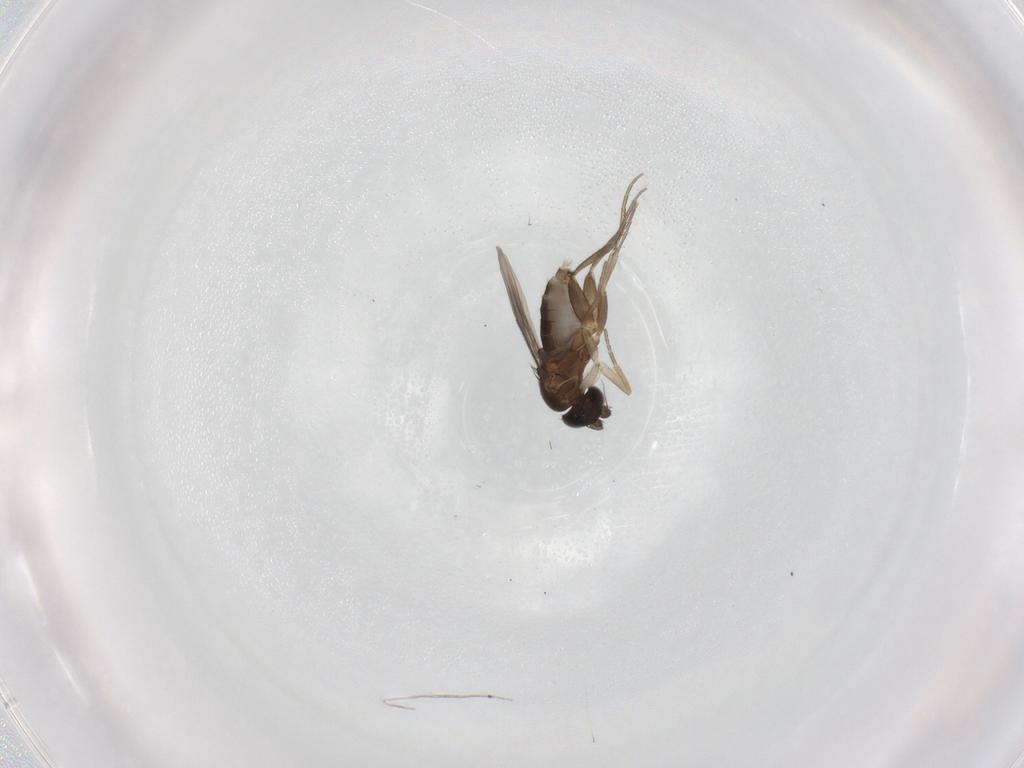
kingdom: Animalia
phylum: Arthropoda
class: Insecta
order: Diptera
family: Phoridae
